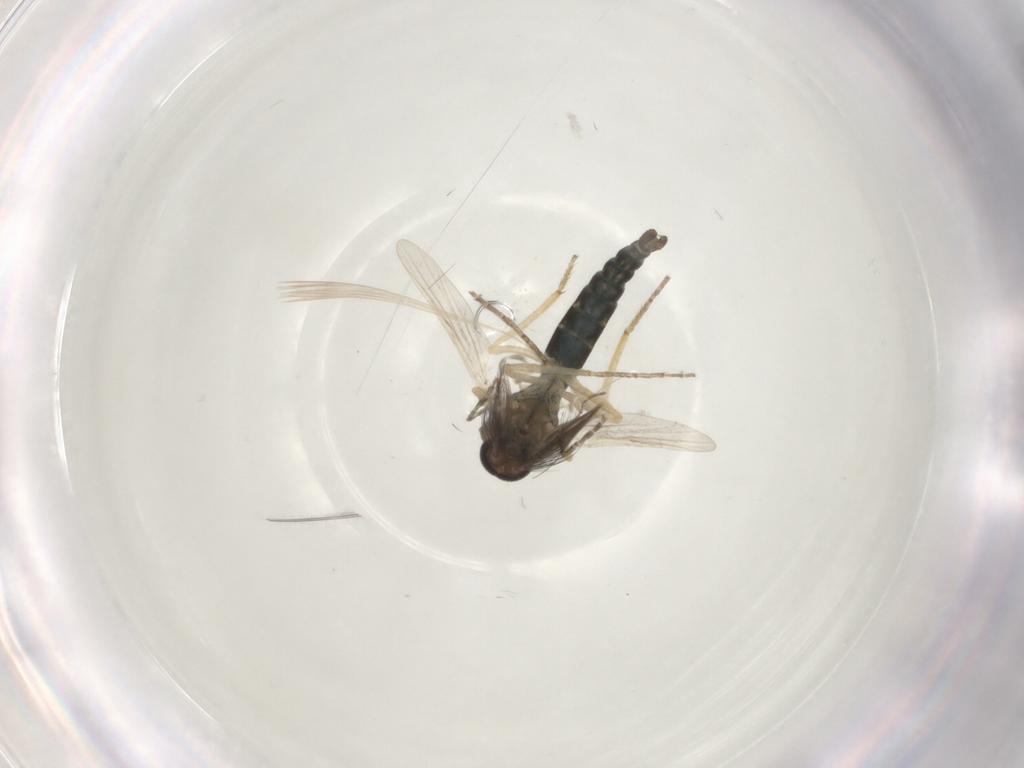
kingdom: Animalia
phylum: Arthropoda
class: Insecta
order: Diptera
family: Ceratopogonidae
